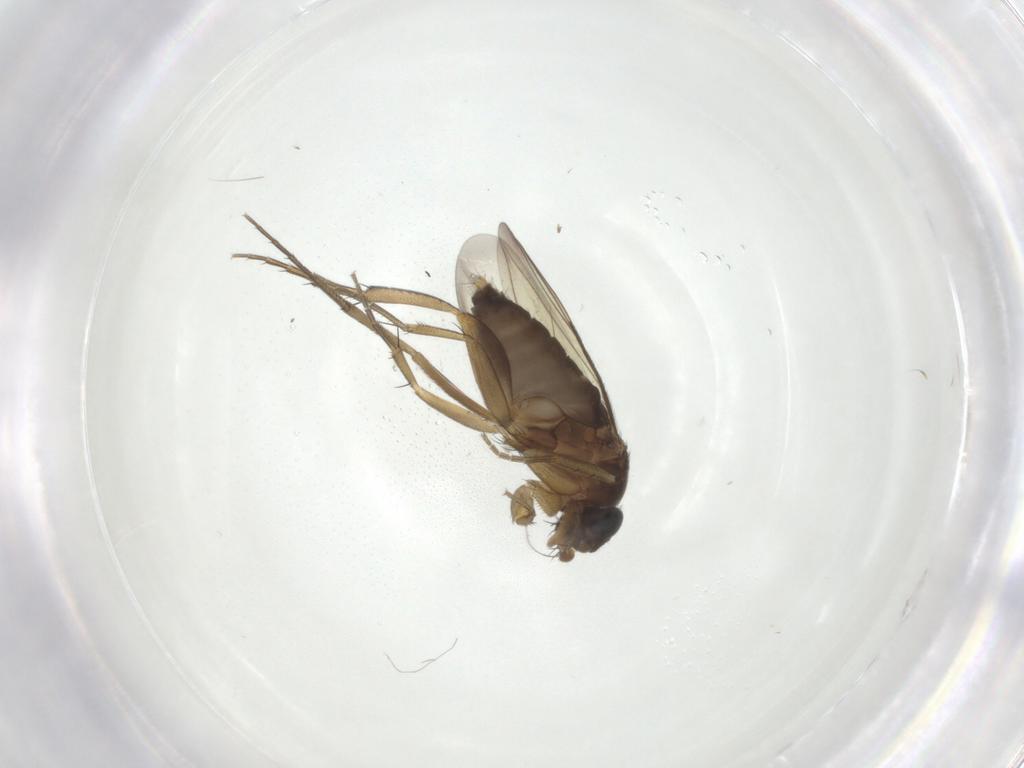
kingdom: Animalia
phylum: Arthropoda
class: Insecta
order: Diptera
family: Phoridae
